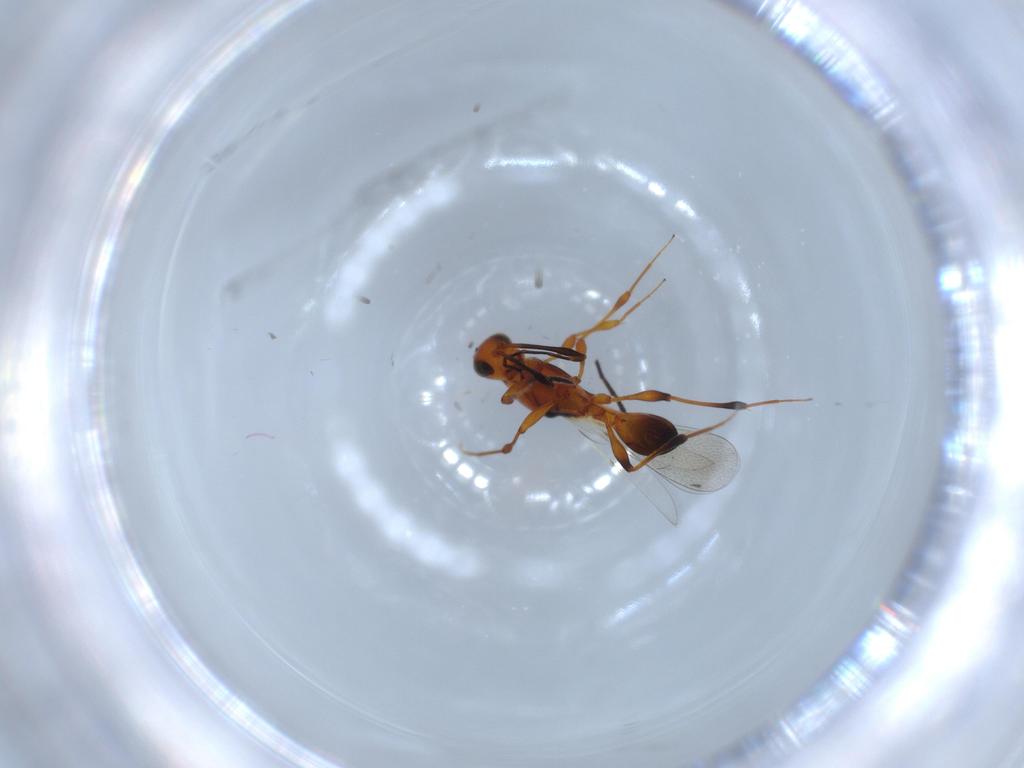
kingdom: Animalia
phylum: Arthropoda
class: Insecta
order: Hymenoptera
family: Platygastridae
